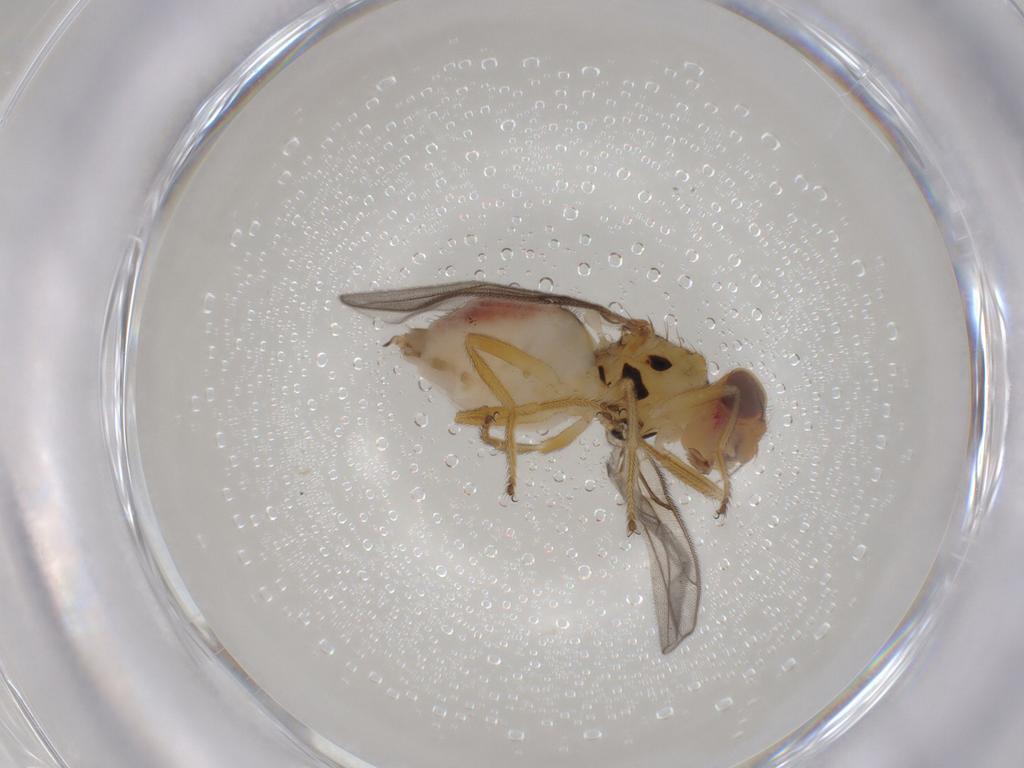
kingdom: Animalia
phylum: Arthropoda
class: Insecta
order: Diptera
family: Chloropidae
